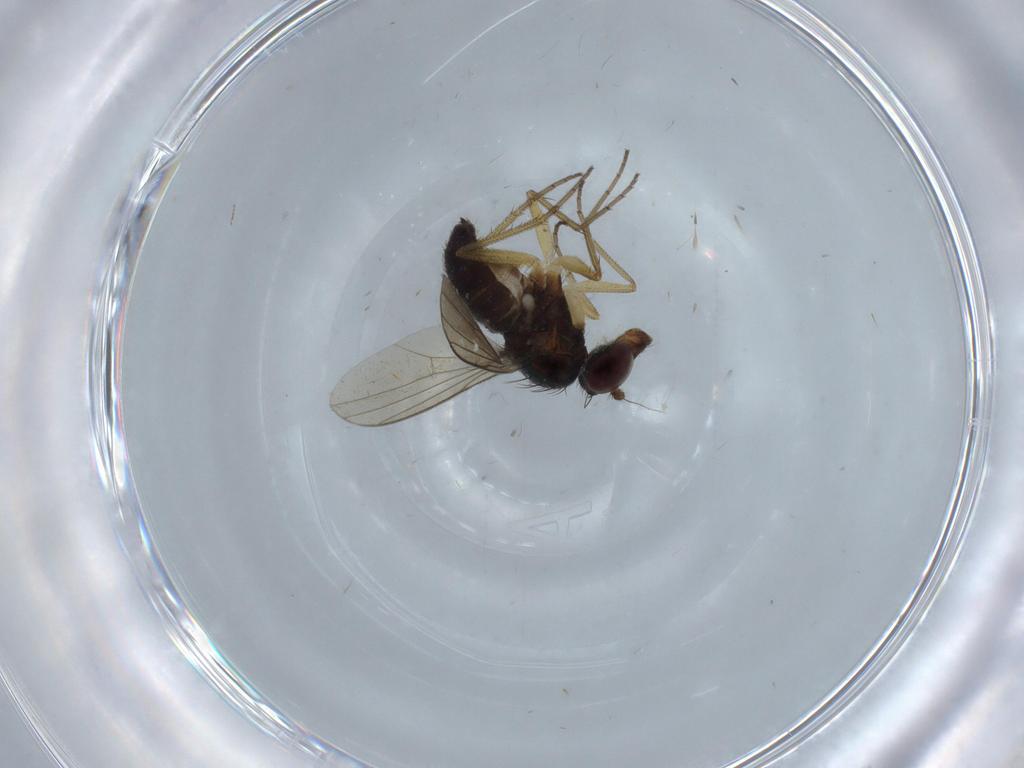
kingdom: Animalia
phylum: Arthropoda
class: Insecta
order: Diptera
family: Dolichopodidae
